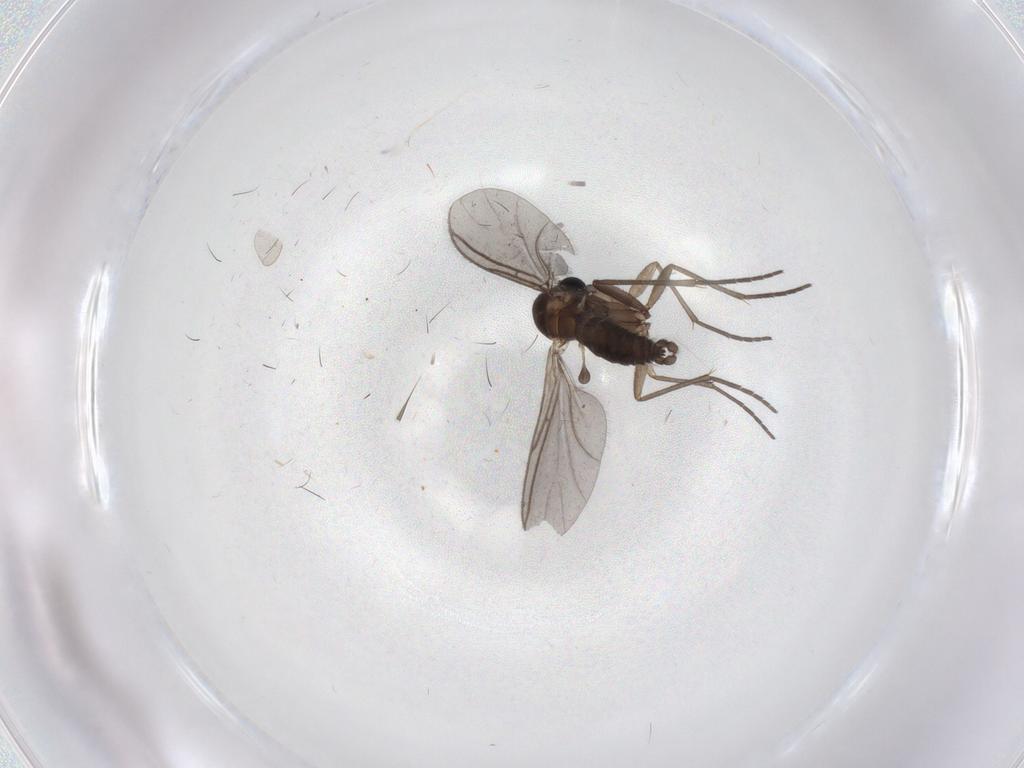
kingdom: Animalia
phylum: Arthropoda
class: Insecta
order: Diptera
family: Sciaridae
